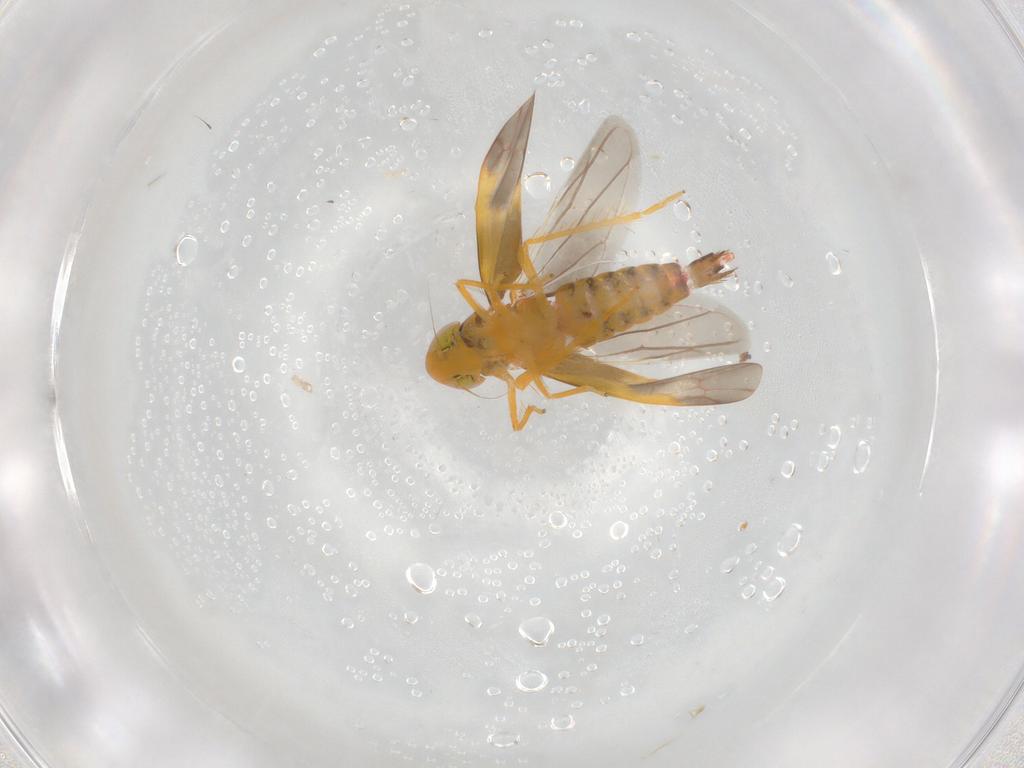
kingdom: Animalia
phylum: Arthropoda
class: Insecta
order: Hemiptera
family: Cicadellidae
